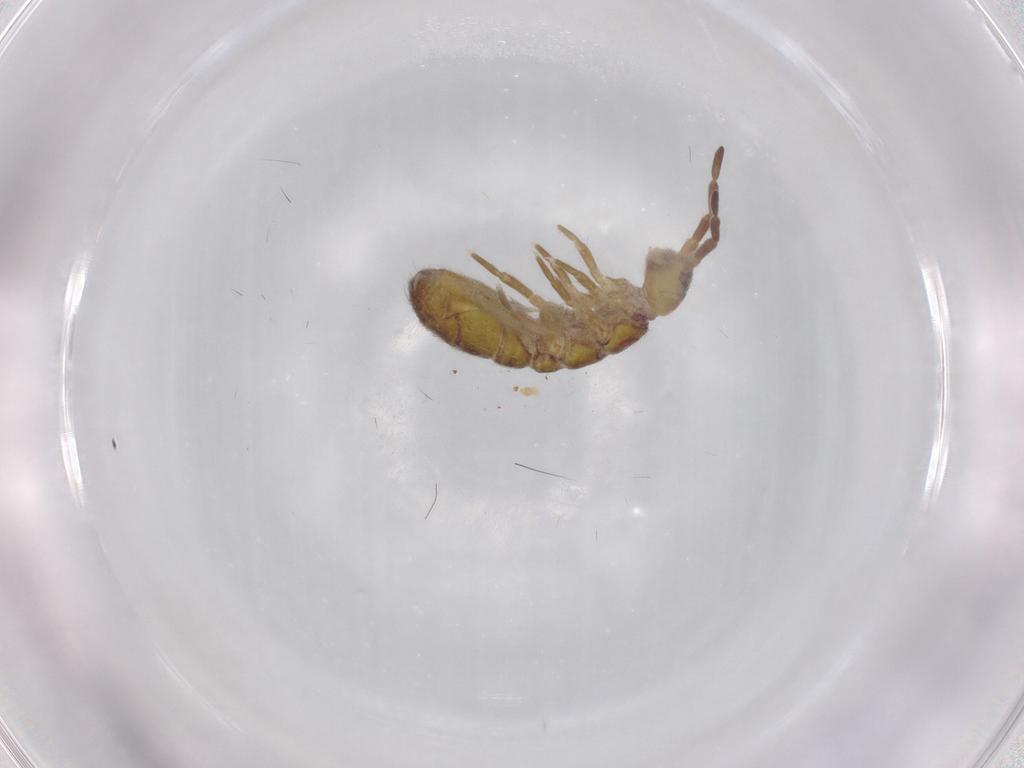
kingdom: Animalia
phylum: Arthropoda
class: Collembola
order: Entomobryomorpha
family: Isotomidae
